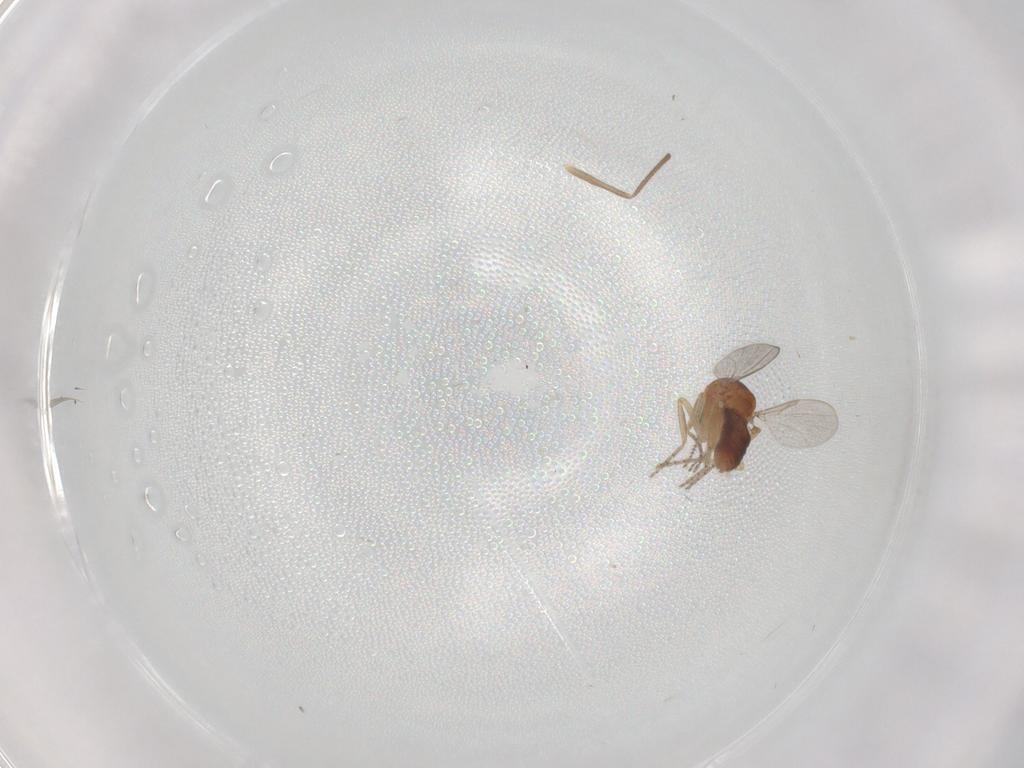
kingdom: Animalia
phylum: Arthropoda
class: Insecta
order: Diptera
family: Ceratopogonidae
